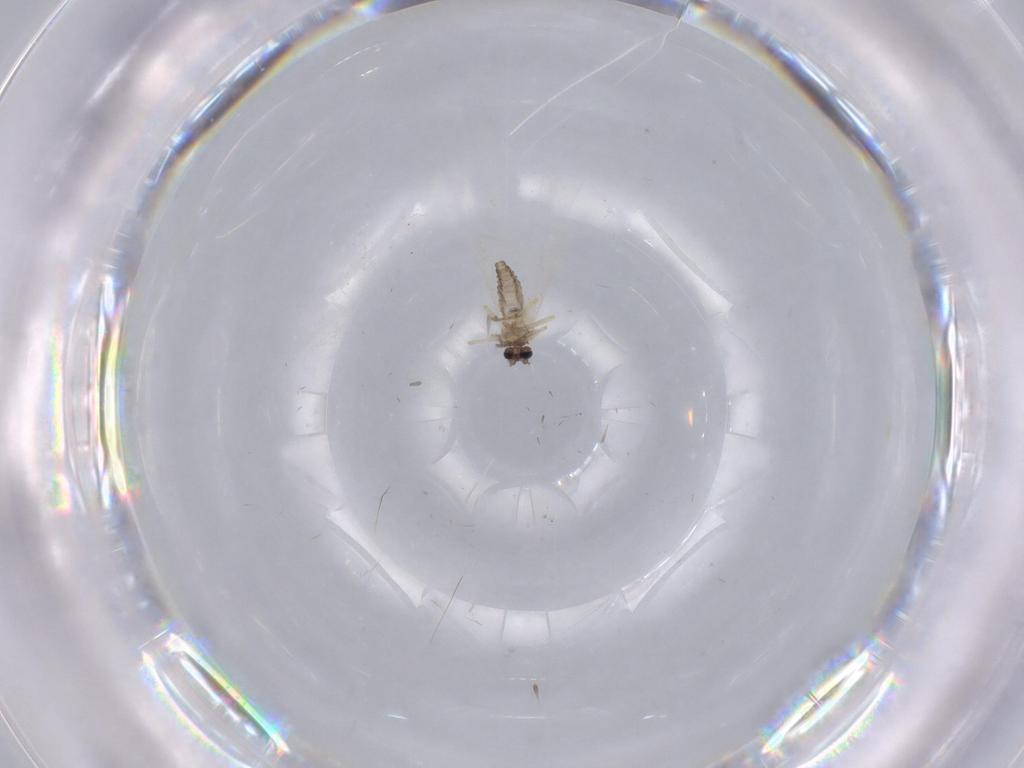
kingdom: Animalia
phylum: Arthropoda
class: Insecta
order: Diptera
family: Ceratopogonidae
